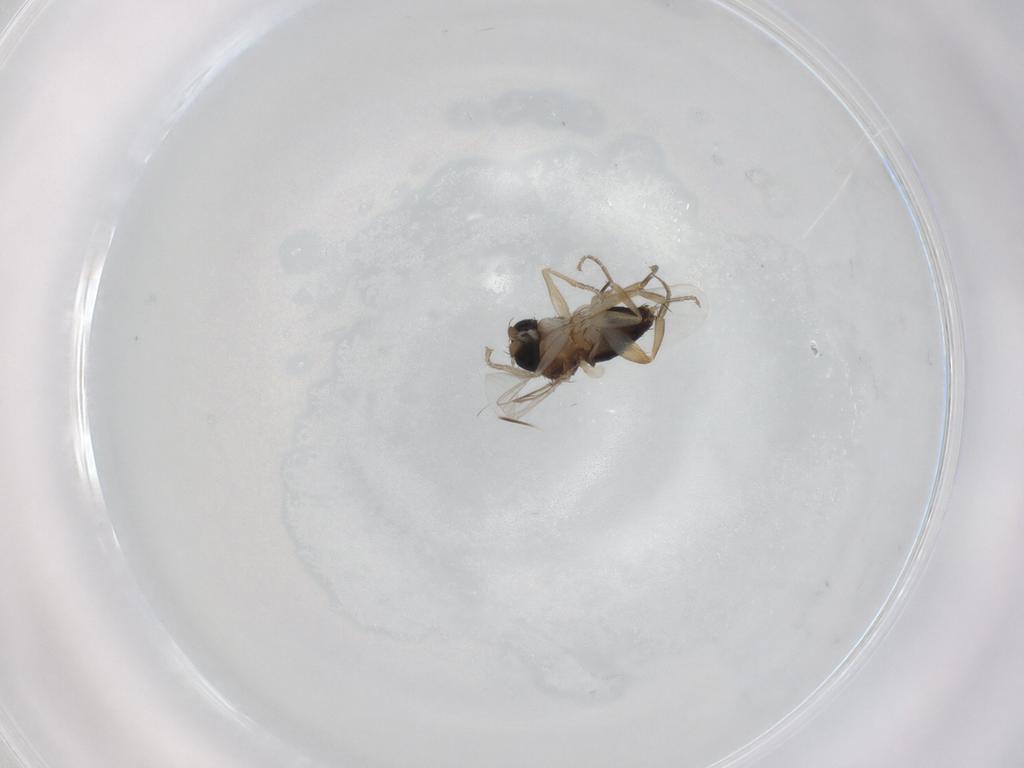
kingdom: Animalia
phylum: Arthropoda
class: Insecta
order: Diptera
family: Phoridae
